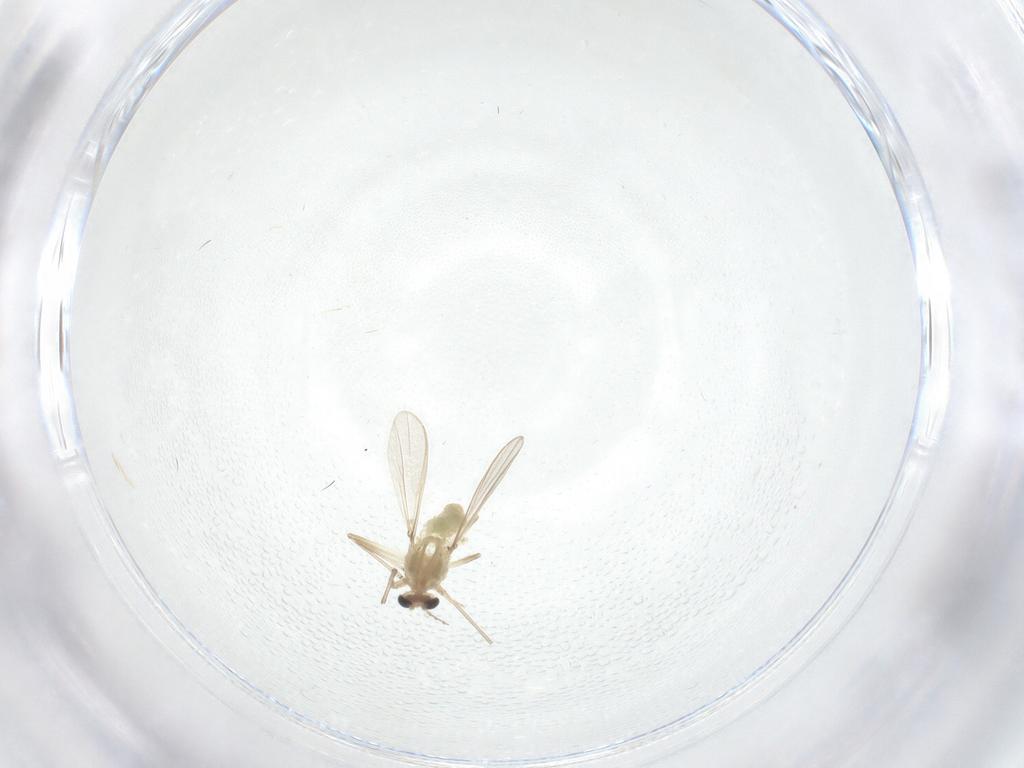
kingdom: Animalia
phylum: Arthropoda
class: Insecta
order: Diptera
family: Chironomidae
